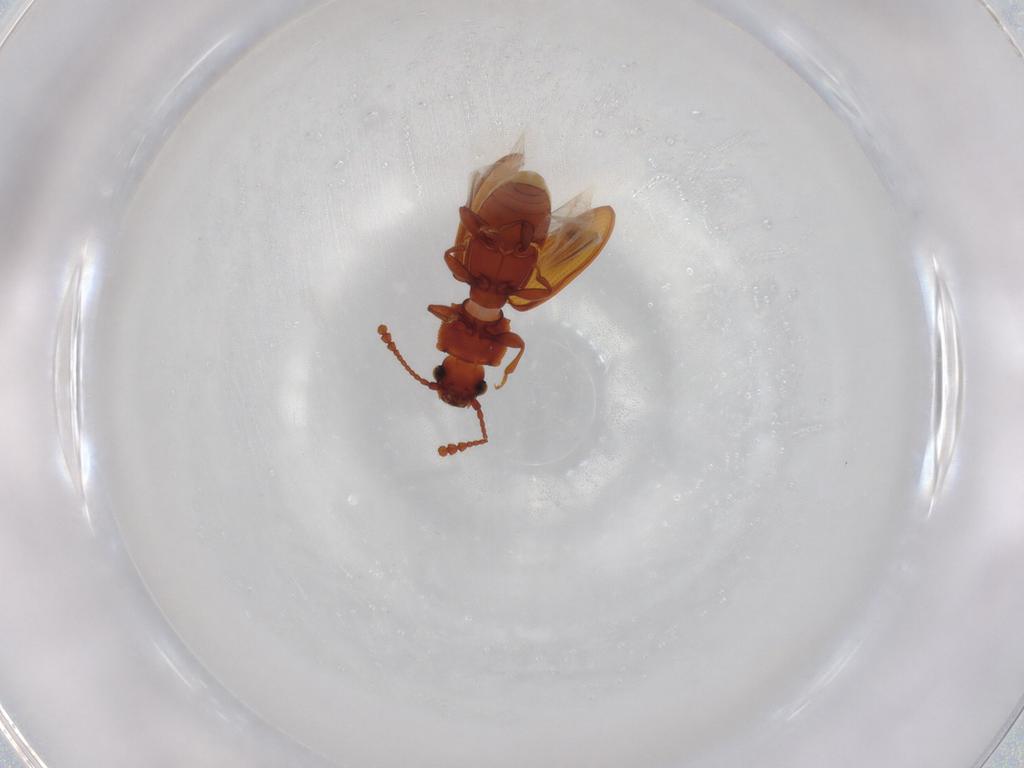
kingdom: Animalia
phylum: Arthropoda
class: Insecta
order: Coleoptera
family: Silvanidae
